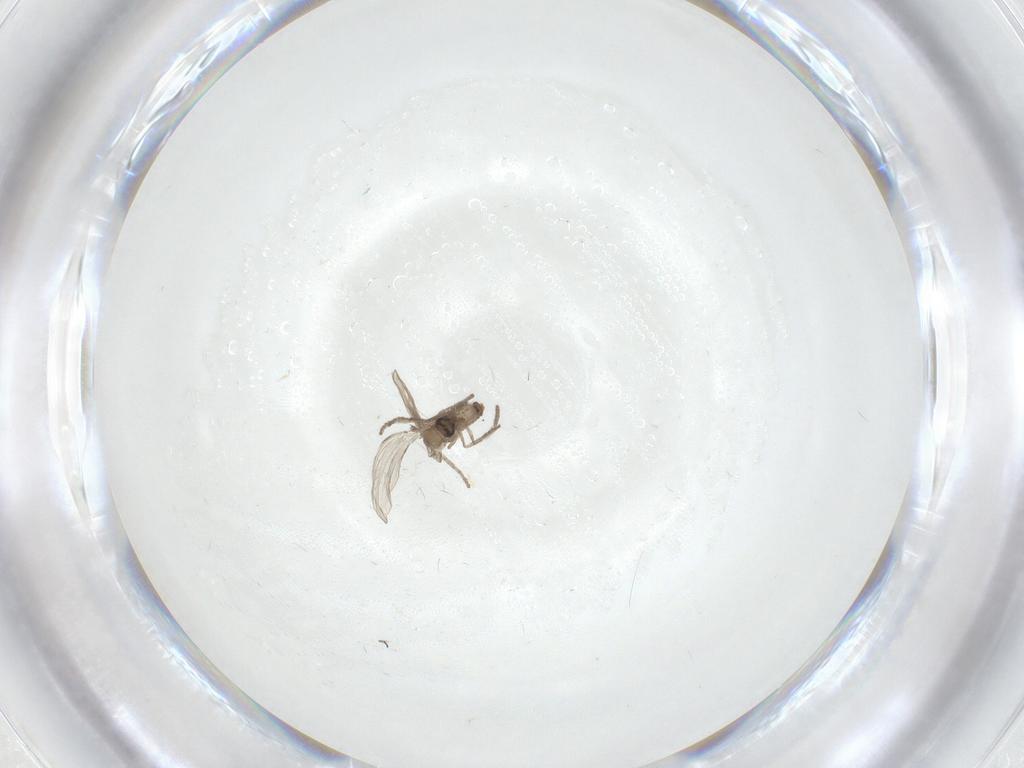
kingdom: Animalia
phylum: Arthropoda
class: Insecta
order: Diptera
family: Psychodidae
